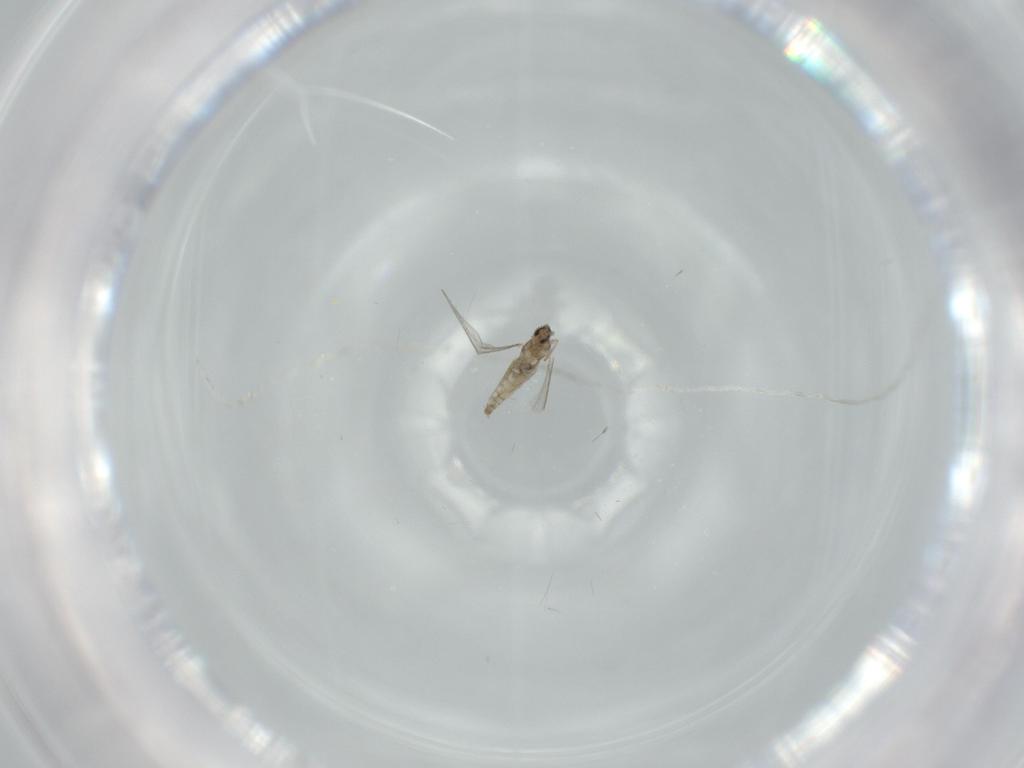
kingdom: Animalia
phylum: Arthropoda
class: Insecta
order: Diptera
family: Cecidomyiidae
